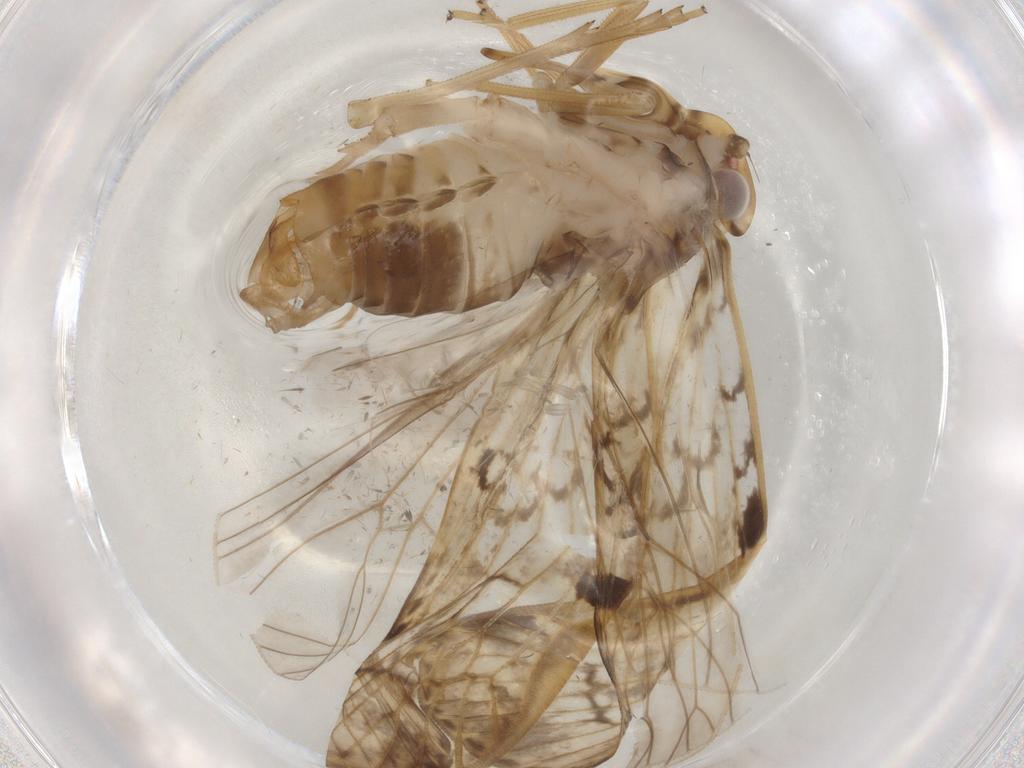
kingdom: Animalia
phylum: Arthropoda
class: Insecta
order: Hemiptera
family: Cixiidae
